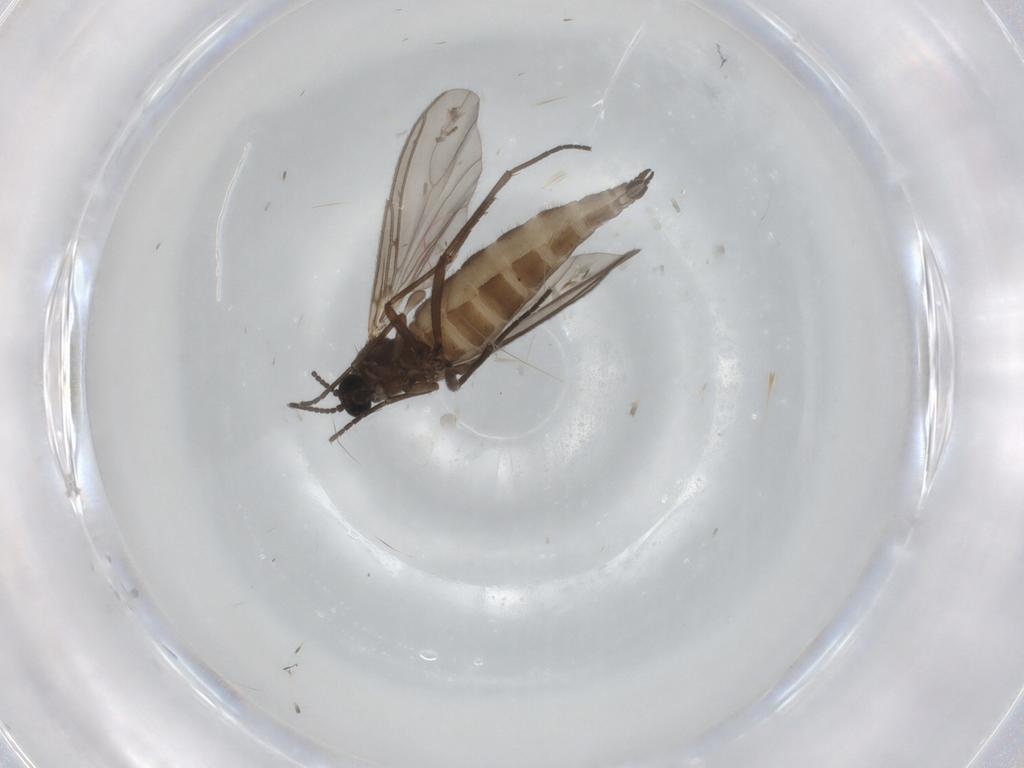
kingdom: Animalia
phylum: Arthropoda
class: Insecta
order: Diptera
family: Sciaridae
